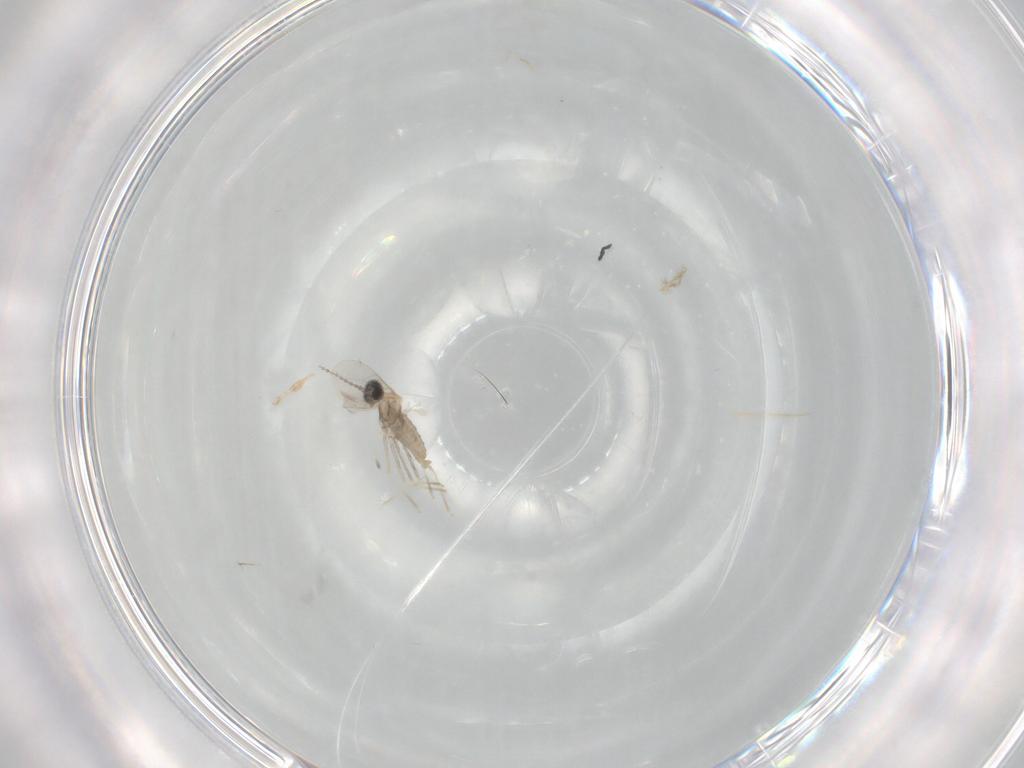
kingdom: Animalia
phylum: Arthropoda
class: Insecta
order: Diptera
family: Cecidomyiidae
